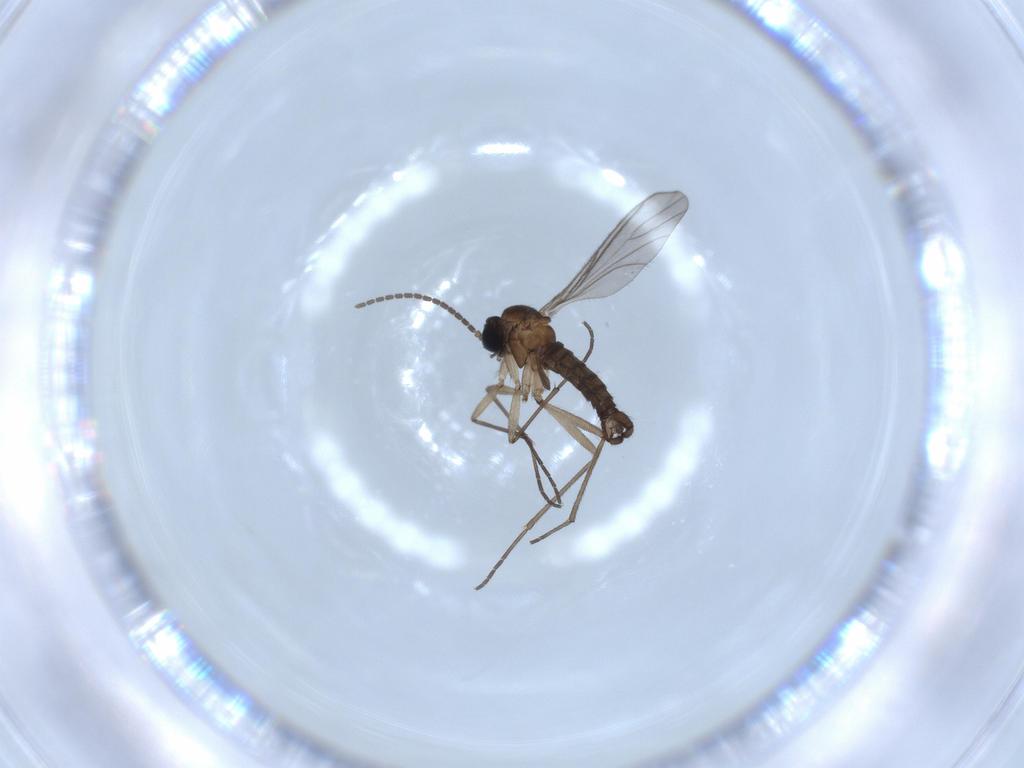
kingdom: Animalia
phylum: Arthropoda
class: Insecta
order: Diptera
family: Sciaridae
